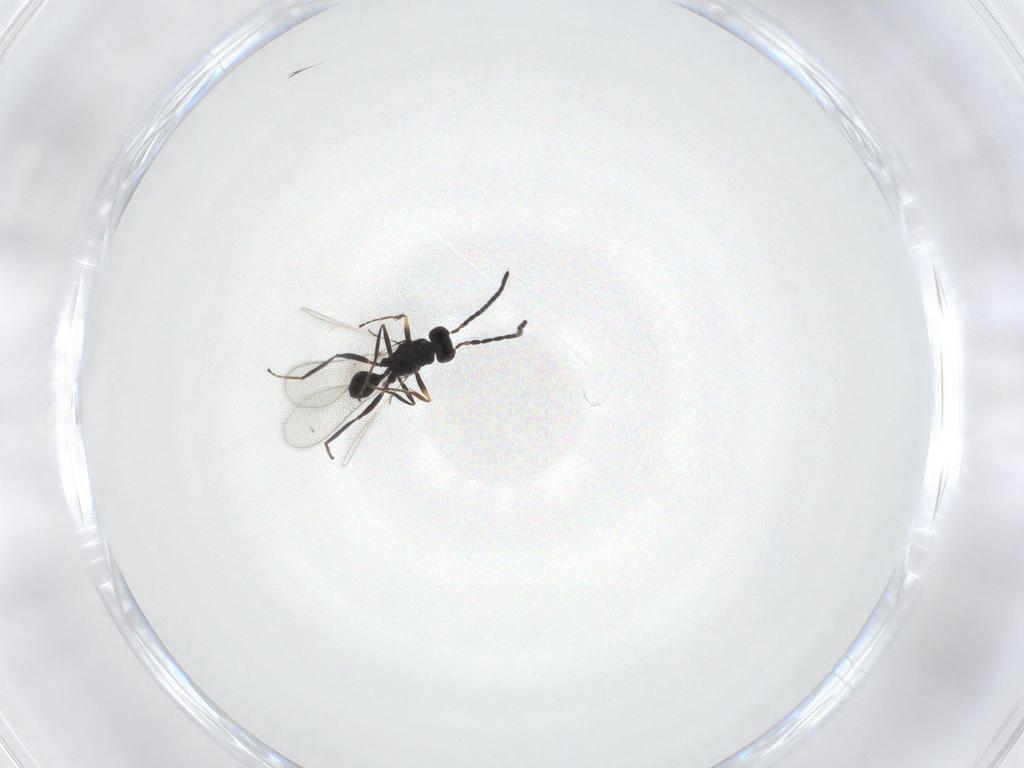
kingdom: Animalia
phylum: Arthropoda
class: Insecta
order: Hymenoptera
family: Mymaridae
